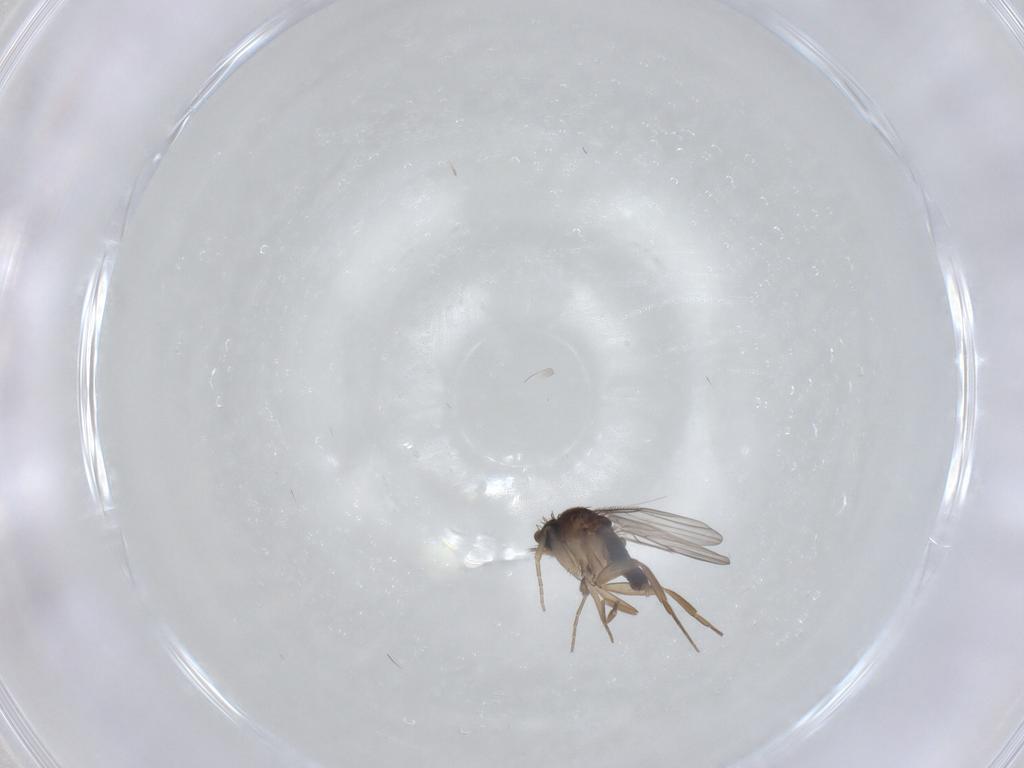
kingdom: Animalia
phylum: Arthropoda
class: Insecta
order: Diptera
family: Phoridae
